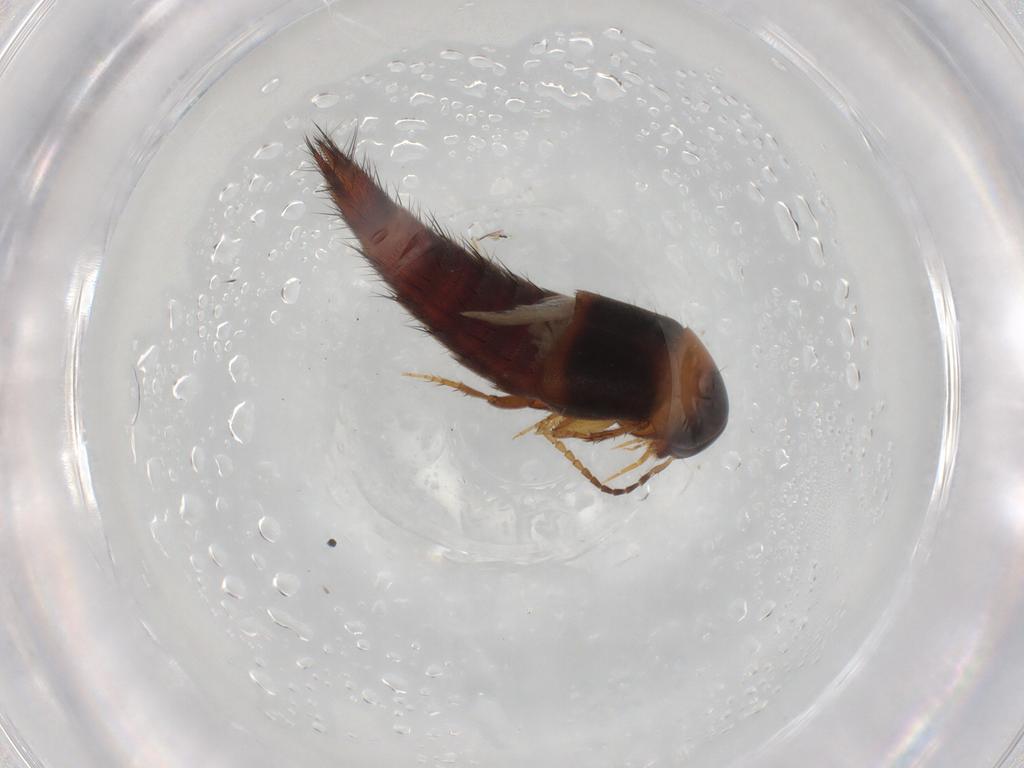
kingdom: Animalia
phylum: Arthropoda
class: Insecta
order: Coleoptera
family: Staphylinidae
